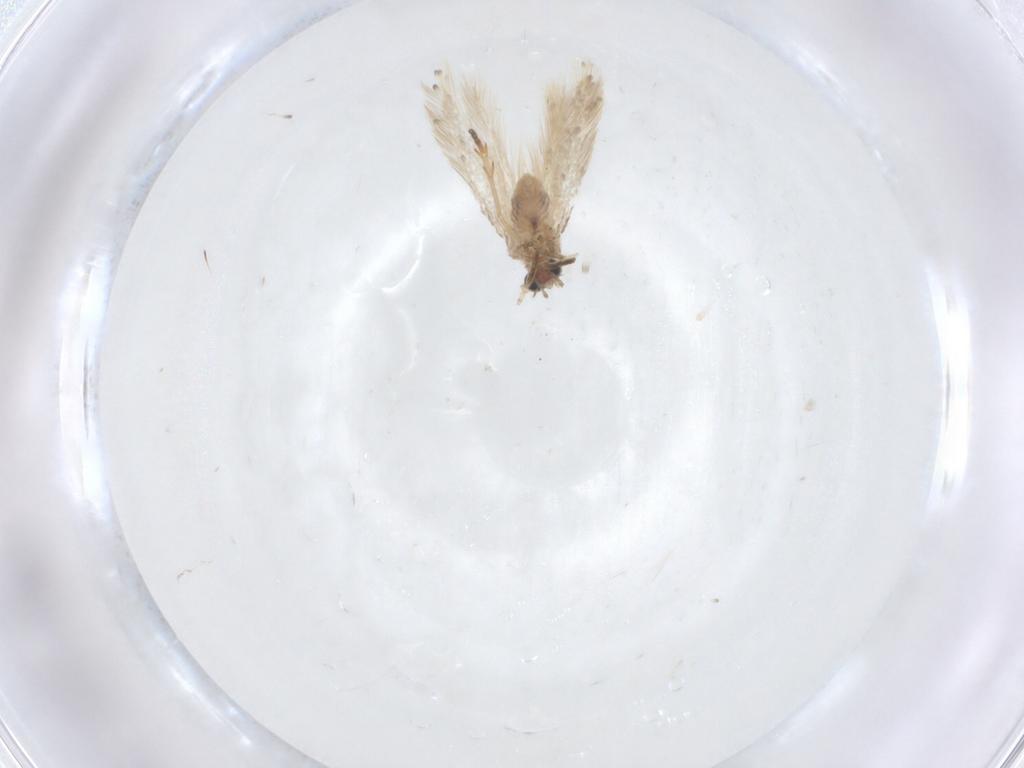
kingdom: Animalia
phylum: Arthropoda
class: Insecta
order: Lepidoptera
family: Nepticulidae
